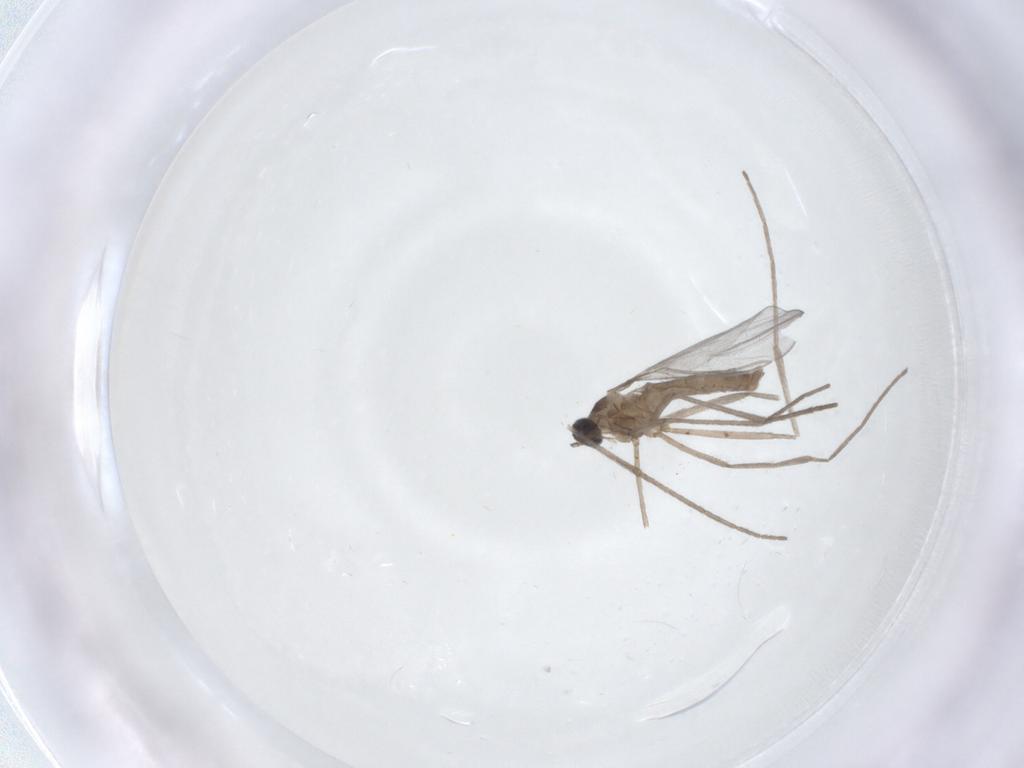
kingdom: Animalia
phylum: Arthropoda
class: Insecta
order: Diptera
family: Cecidomyiidae
